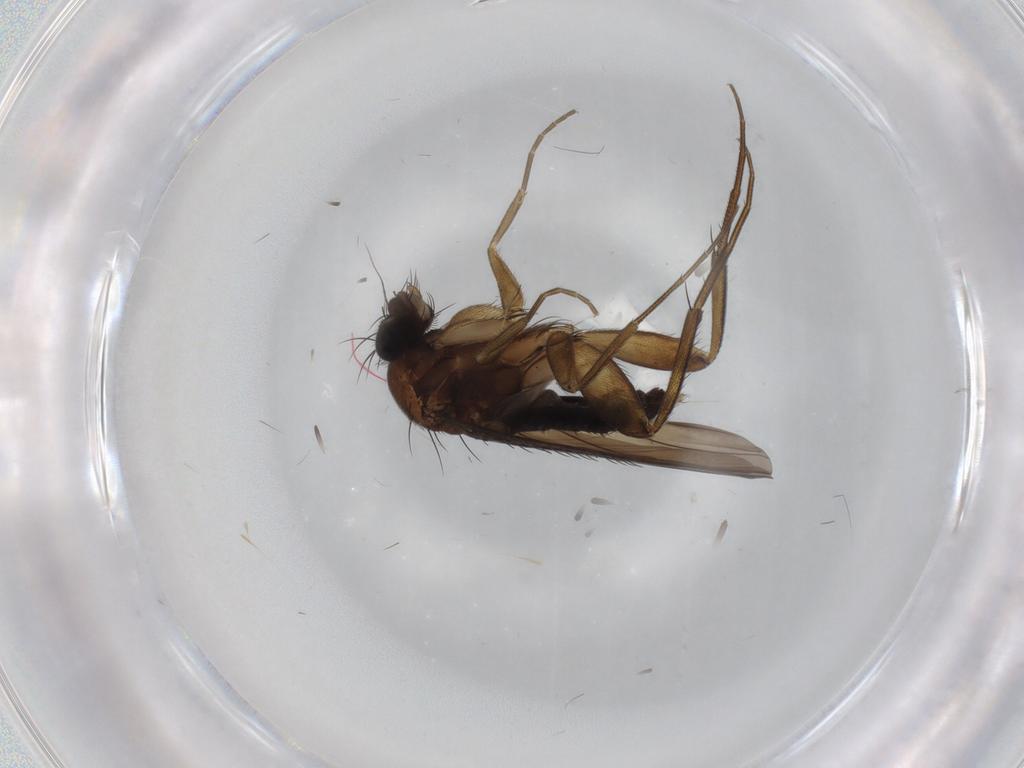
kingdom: Animalia
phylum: Arthropoda
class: Insecta
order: Diptera
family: Phoridae
